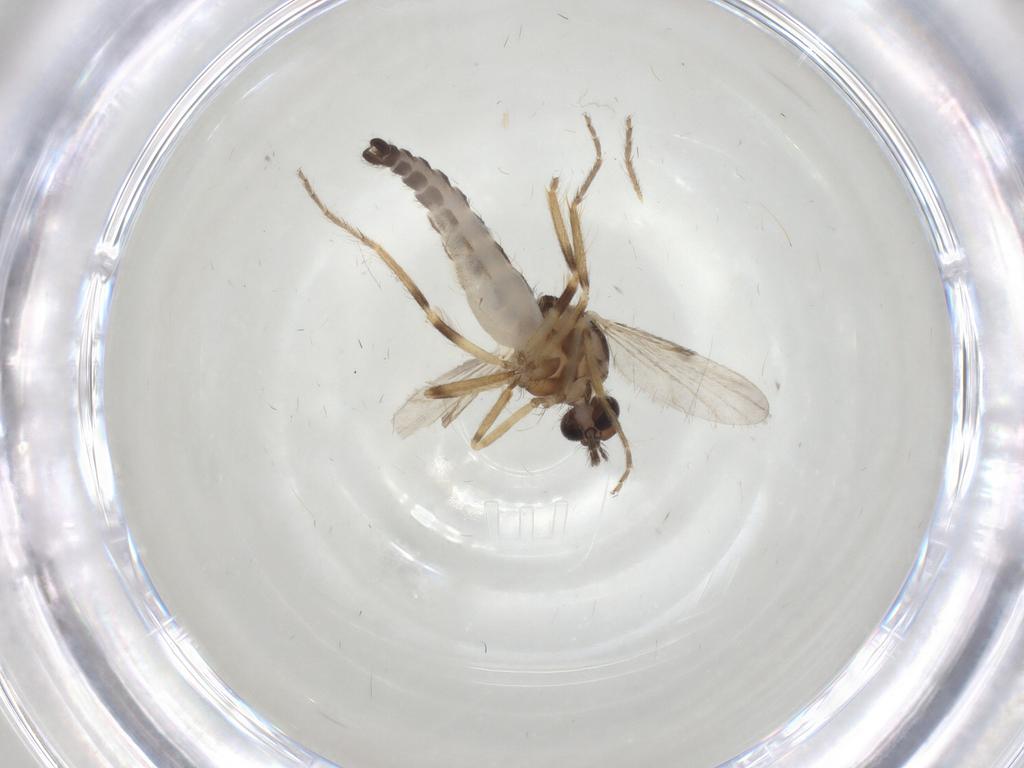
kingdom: Animalia
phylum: Arthropoda
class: Insecta
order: Diptera
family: Ceratopogonidae
